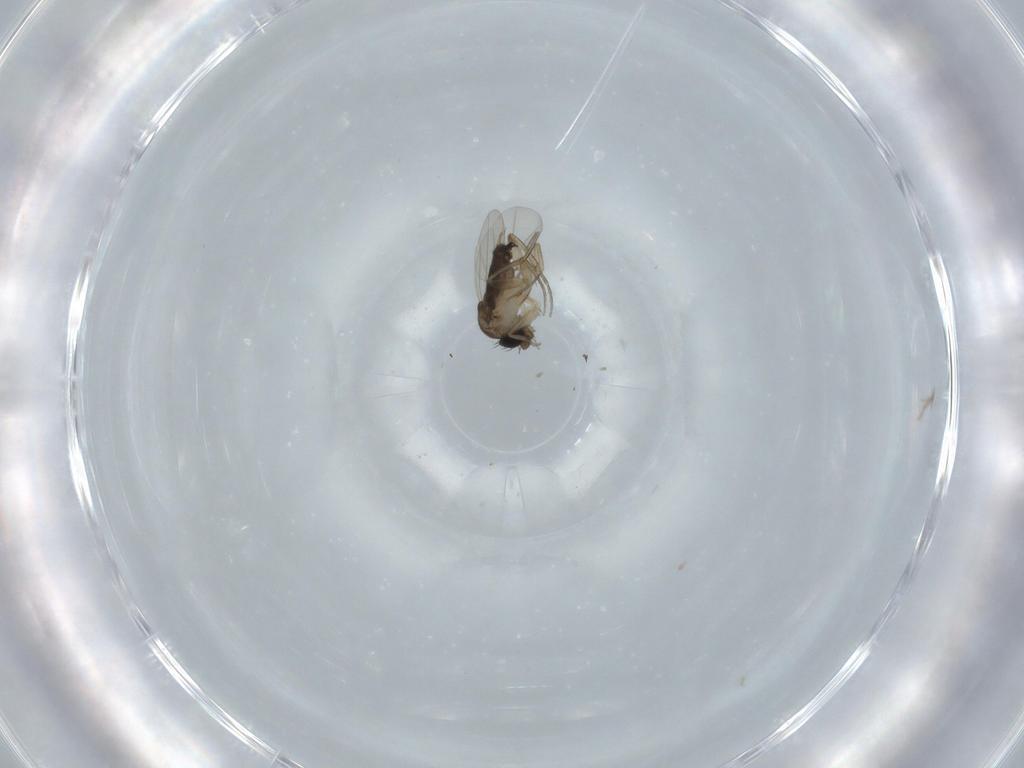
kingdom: Animalia
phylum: Arthropoda
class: Insecta
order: Diptera
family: Phoridae
